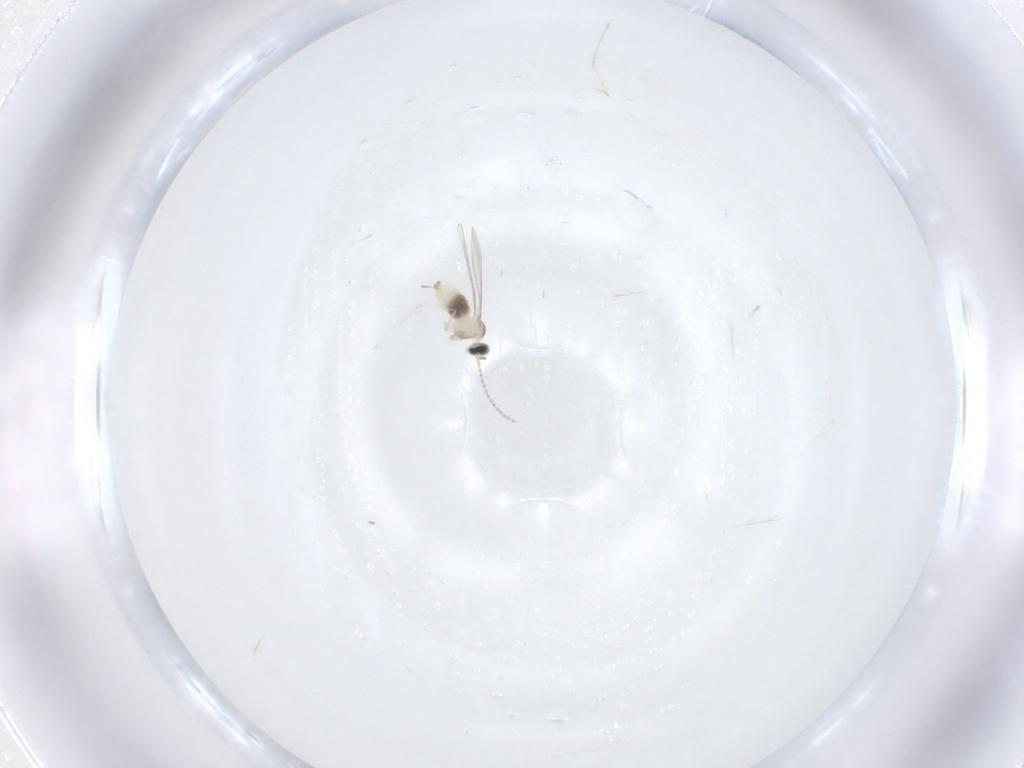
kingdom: Animalia
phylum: Arthropoda
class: Insecta
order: Diptera
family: Cecidomyiidae
